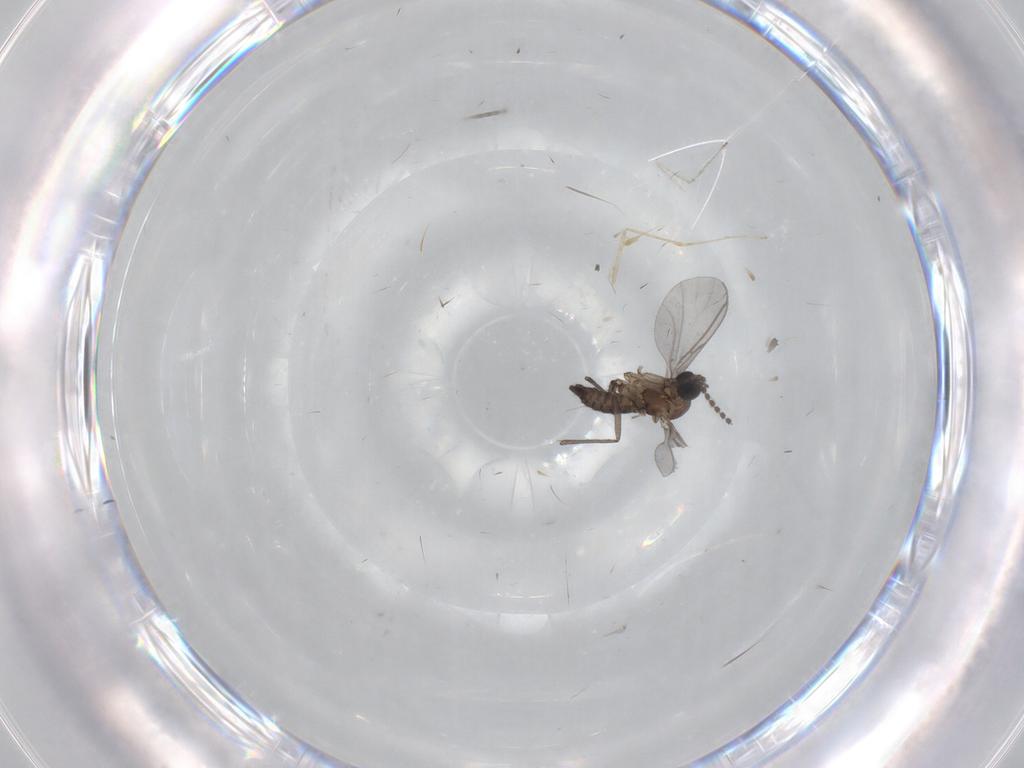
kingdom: Animalia
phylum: Arthropoda
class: Insecta
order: Diptera
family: Cecidomyiidae
